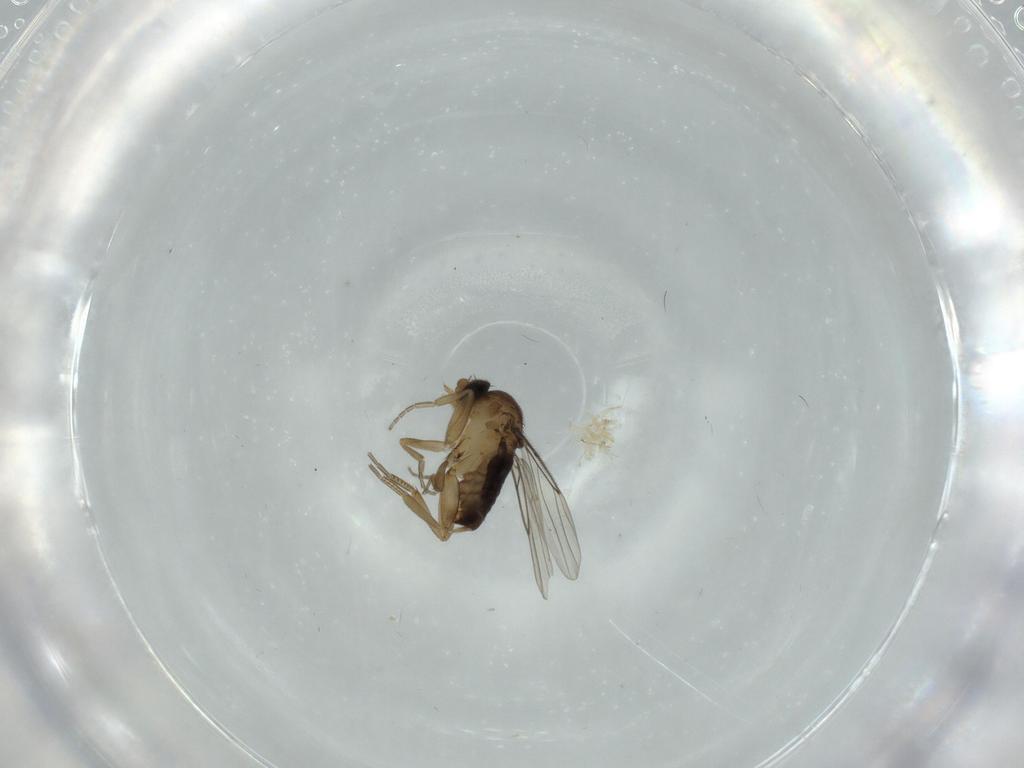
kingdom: Animalia
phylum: Arthropoda
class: Insecta
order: Diptera
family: Phoridae
